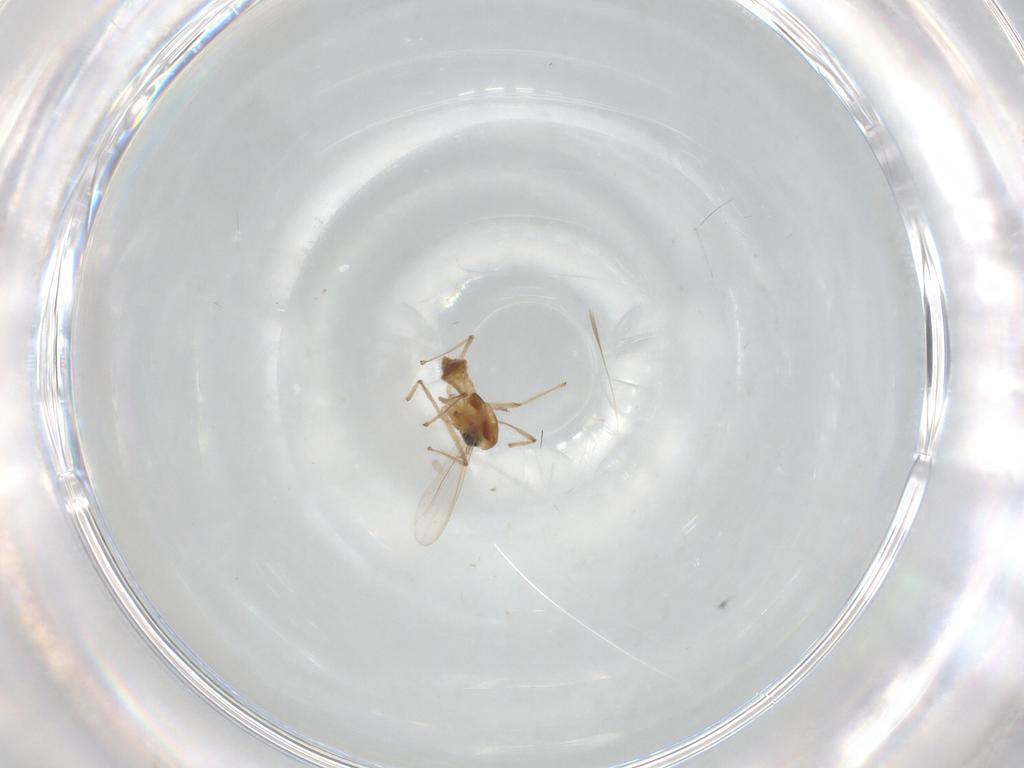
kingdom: Animalia
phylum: Arthropoda
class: Insecta
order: Diptera
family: Chironomidae
